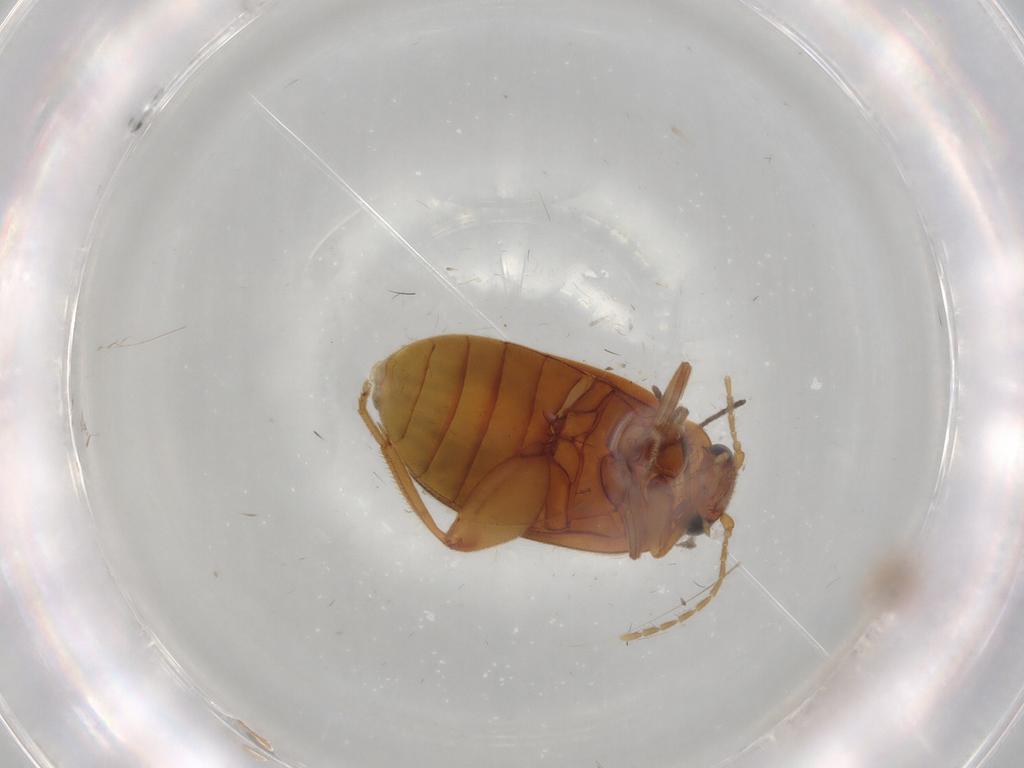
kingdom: Animalia
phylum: Arthropoda
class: Insecta
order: Coleoptera
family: Scirtidae
